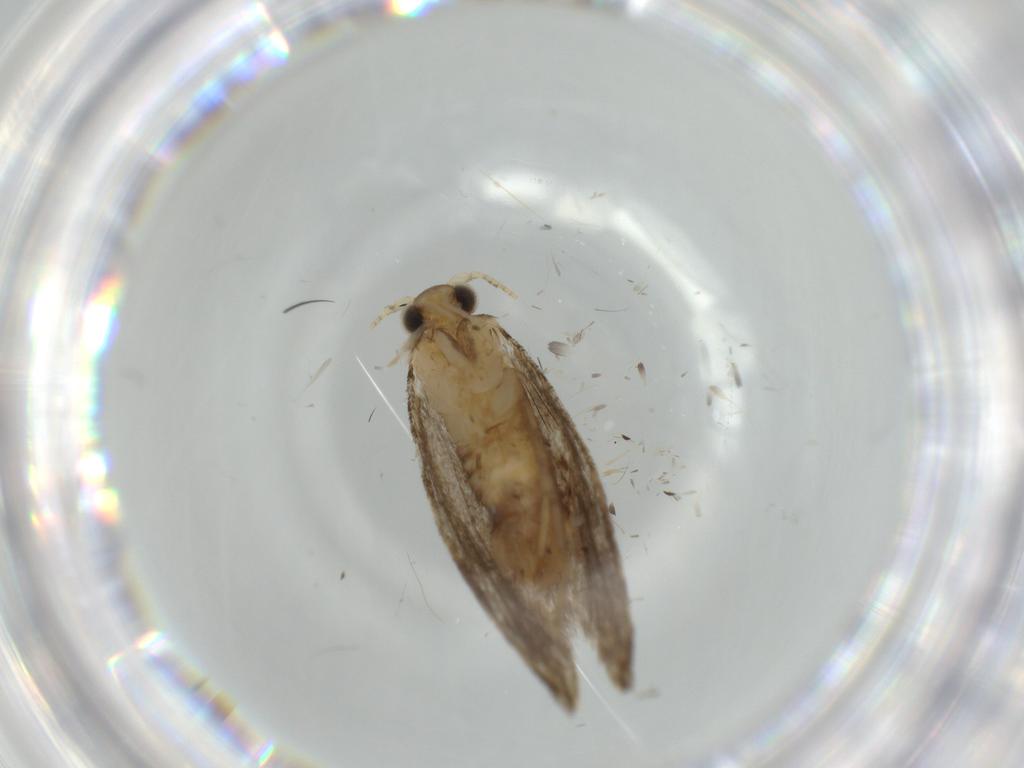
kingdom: Animalia
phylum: Arthropoda
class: Insecta
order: Lepidoptera
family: Tineidae
